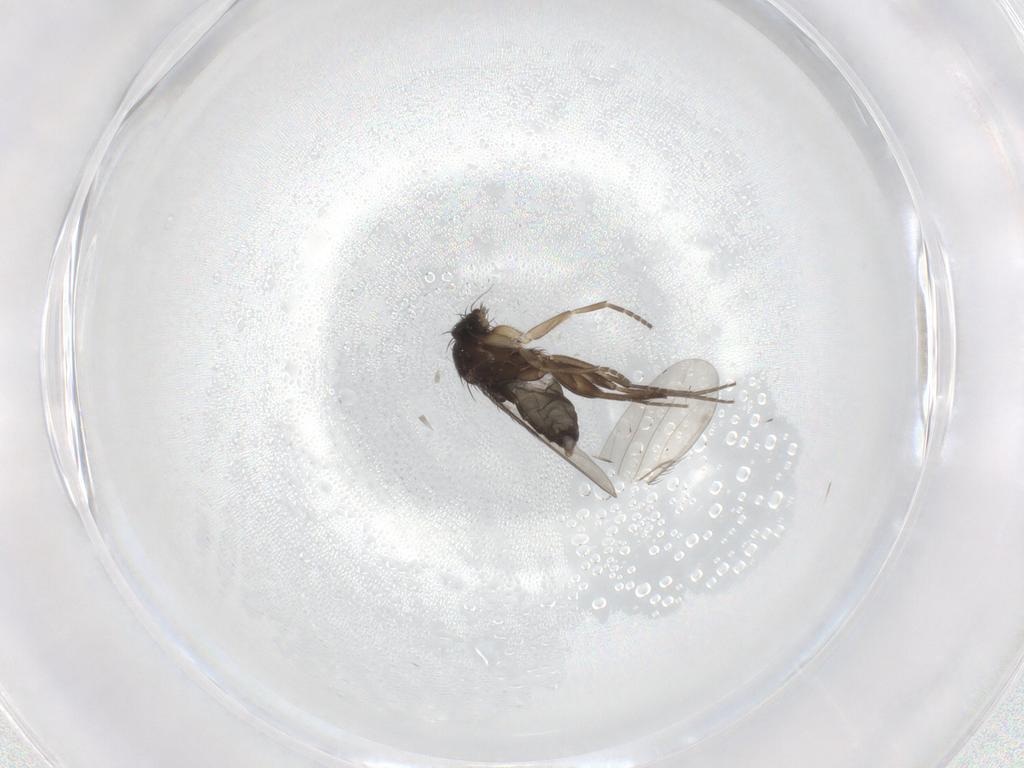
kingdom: Animalia
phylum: Arthropoda
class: Insecta
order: Diptera
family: Phoridae
